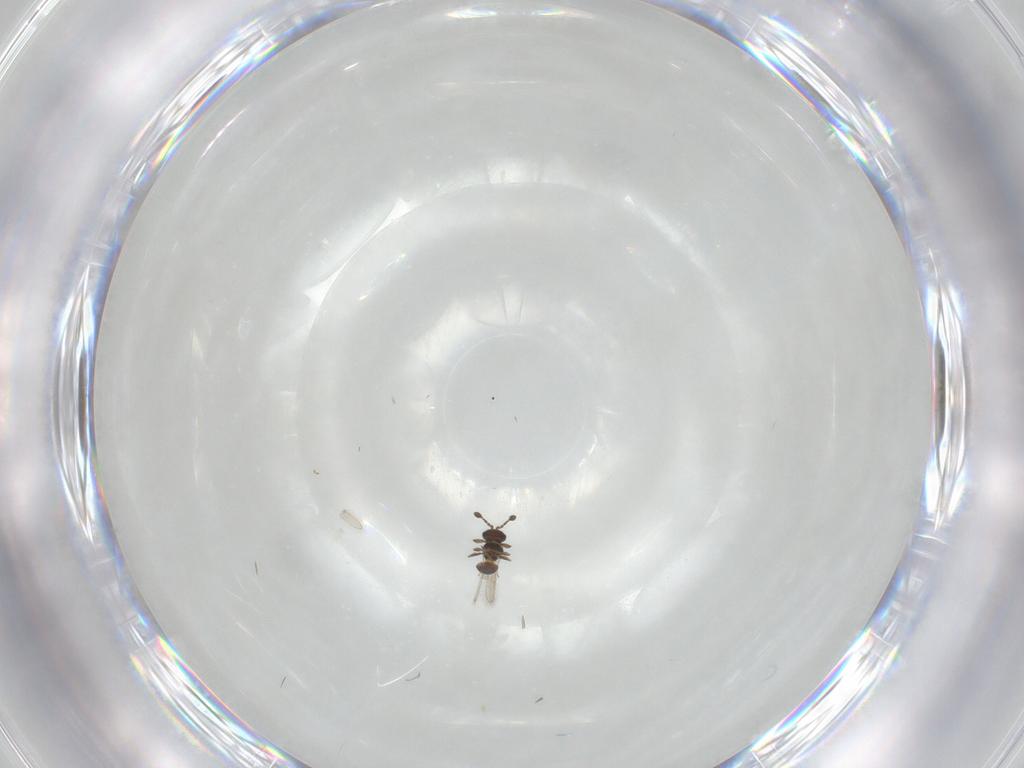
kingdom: Animalia
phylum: Arthropoda
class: Insecta
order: Hymenoptera
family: Scelionidae
